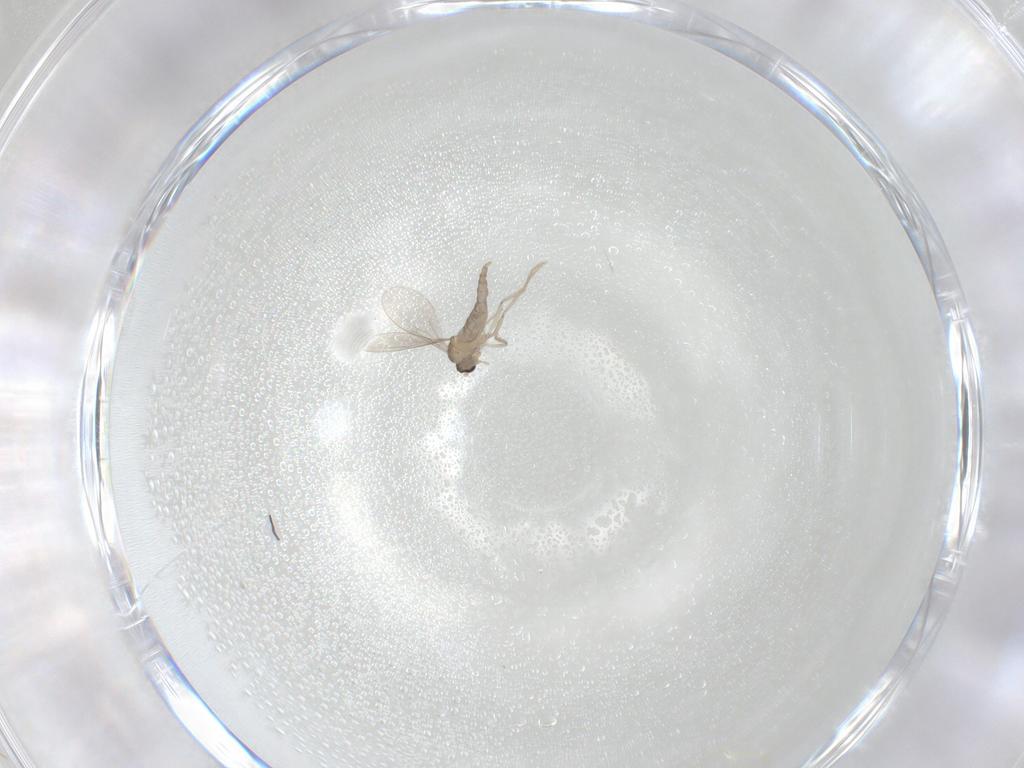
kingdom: Animalia
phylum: Arthropoda
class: Insecta
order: Diptera
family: Cecidomyiidae
